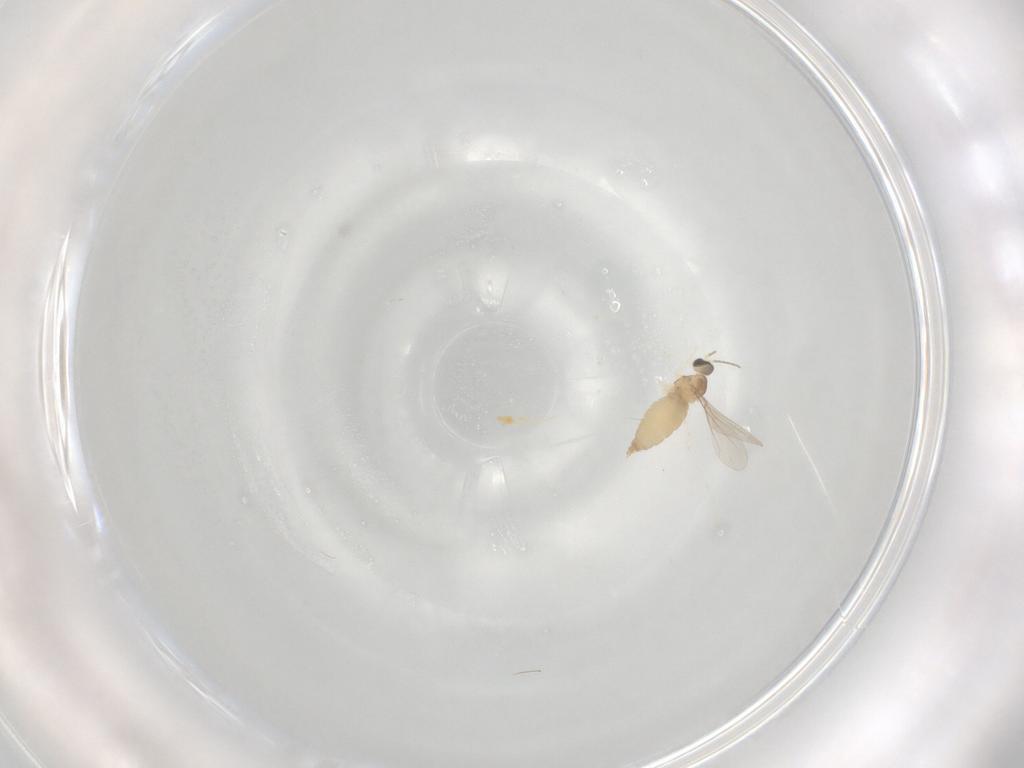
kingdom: Animalia
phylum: Arthropoda
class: Insecta
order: Diptera
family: Cecidomyiidae
